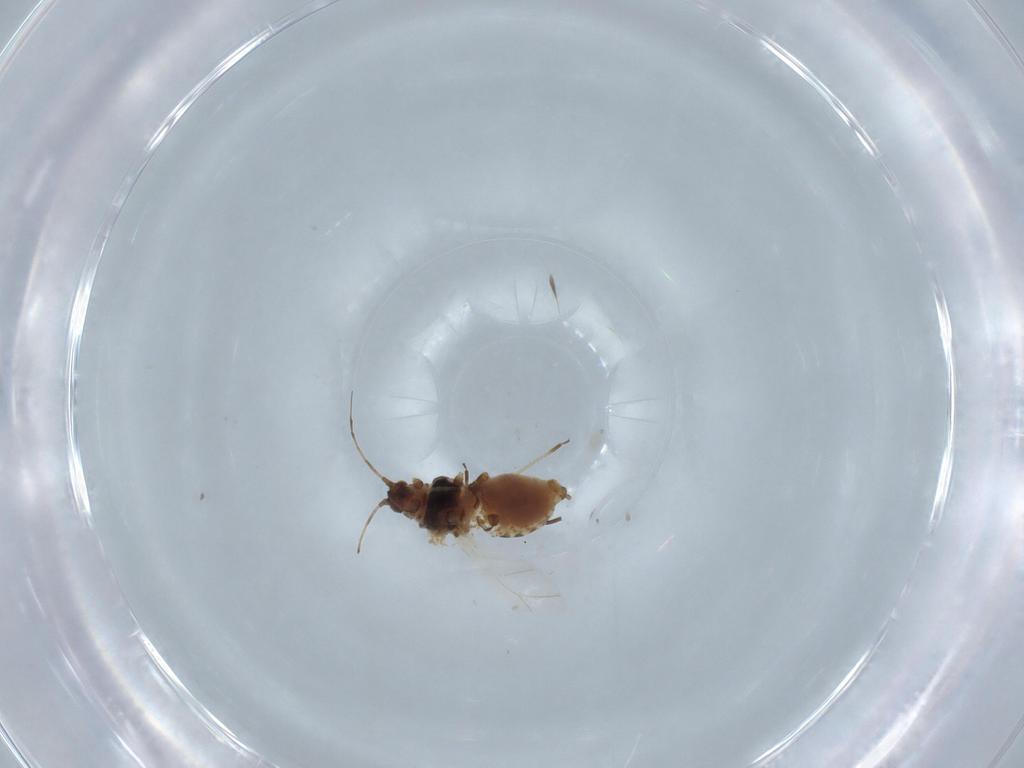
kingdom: Animalia
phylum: Arthropoda
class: Insecta
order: Hemiptera
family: Aphididae
